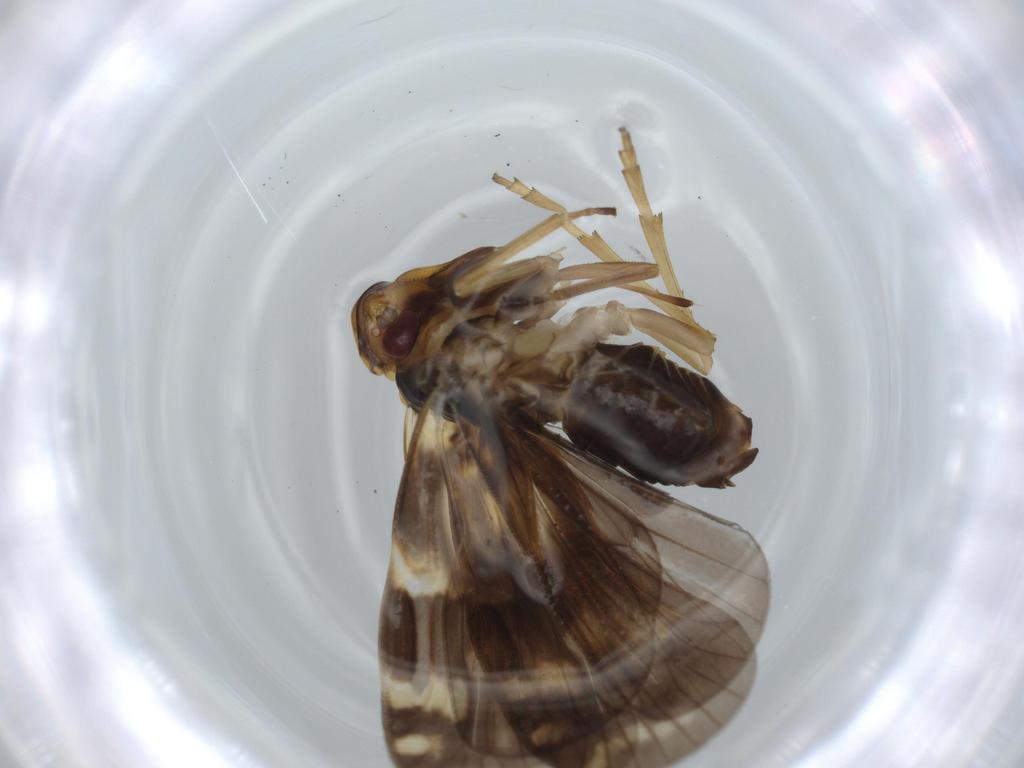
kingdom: Animalia
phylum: Arthropoda
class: Insecta
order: Hemiptera
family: Cixiidae
